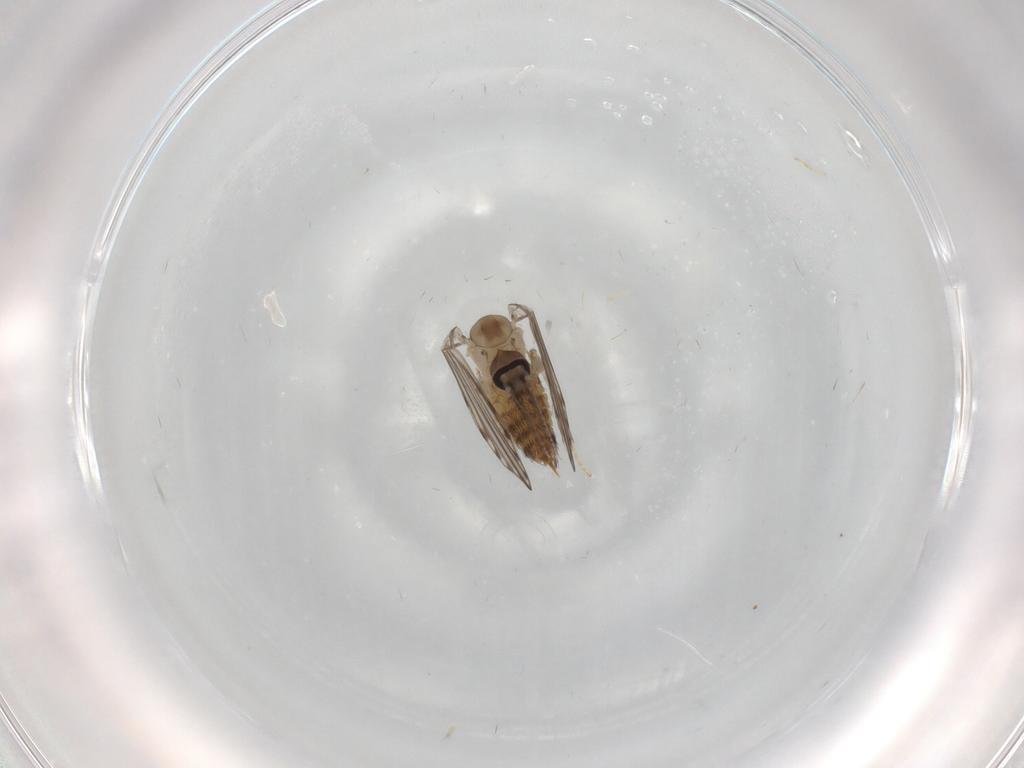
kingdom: Animalia
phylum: Arthropoda
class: Insecta
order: Diptera
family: Psychodidae
